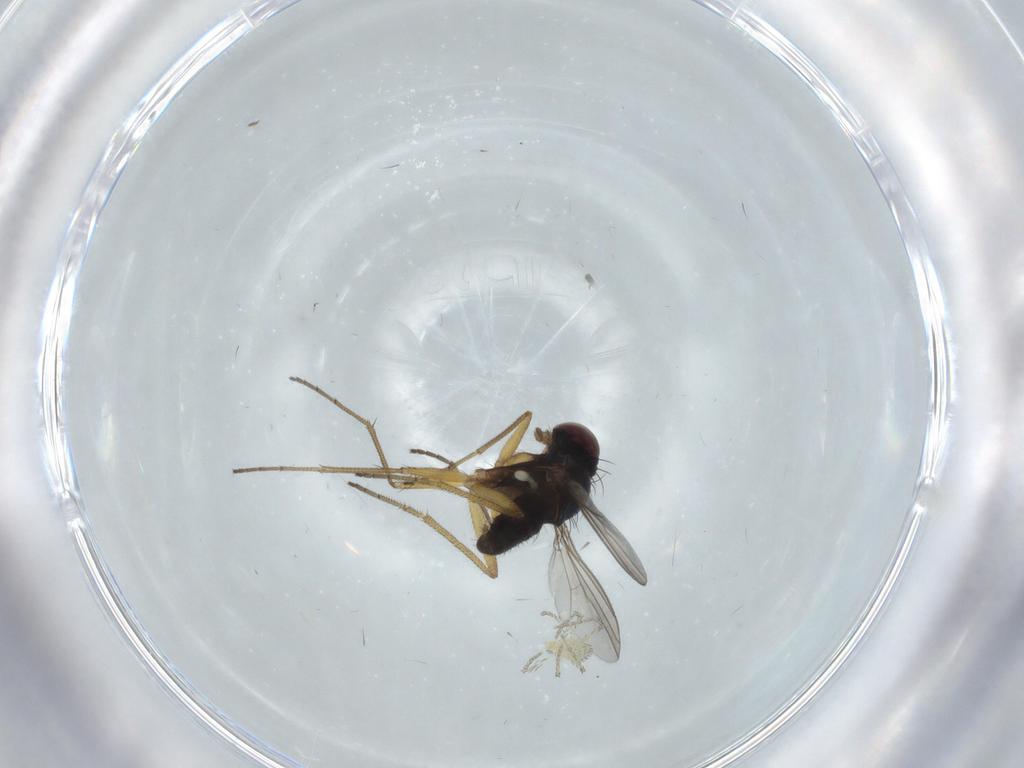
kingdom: Animalia
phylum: Arthropoda
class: Insecta
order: Diptera
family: Dolichopodidae
